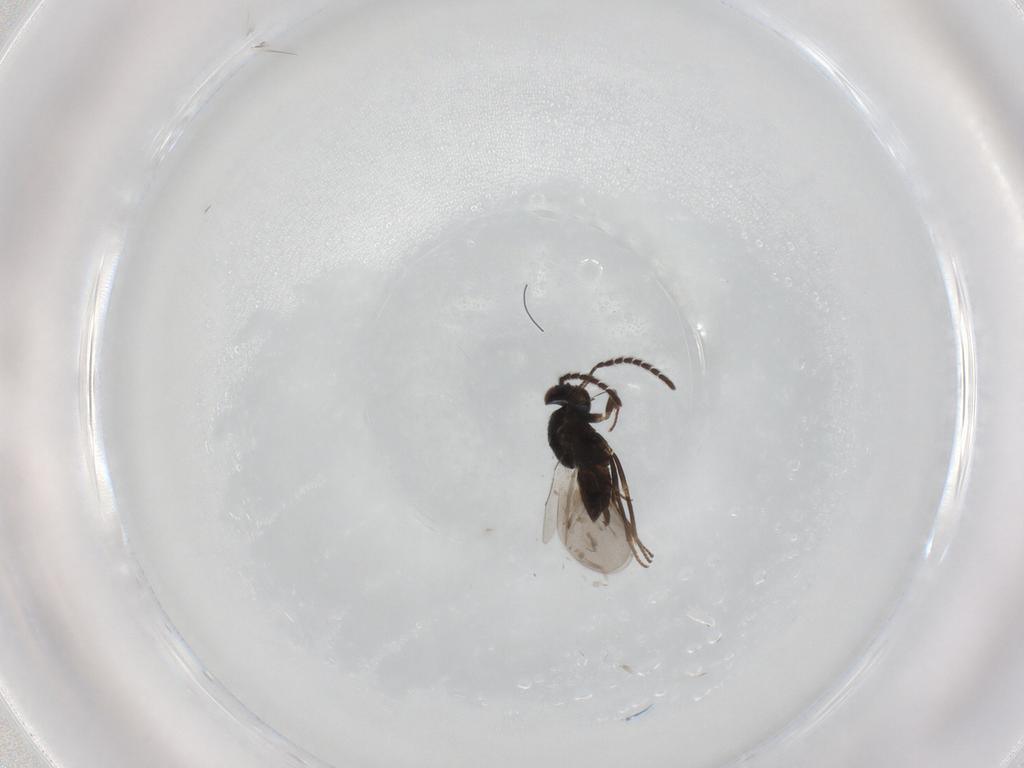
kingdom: Animalia
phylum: Arthropoda
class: Insecta
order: Hymenoptera
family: Encyrtidae
